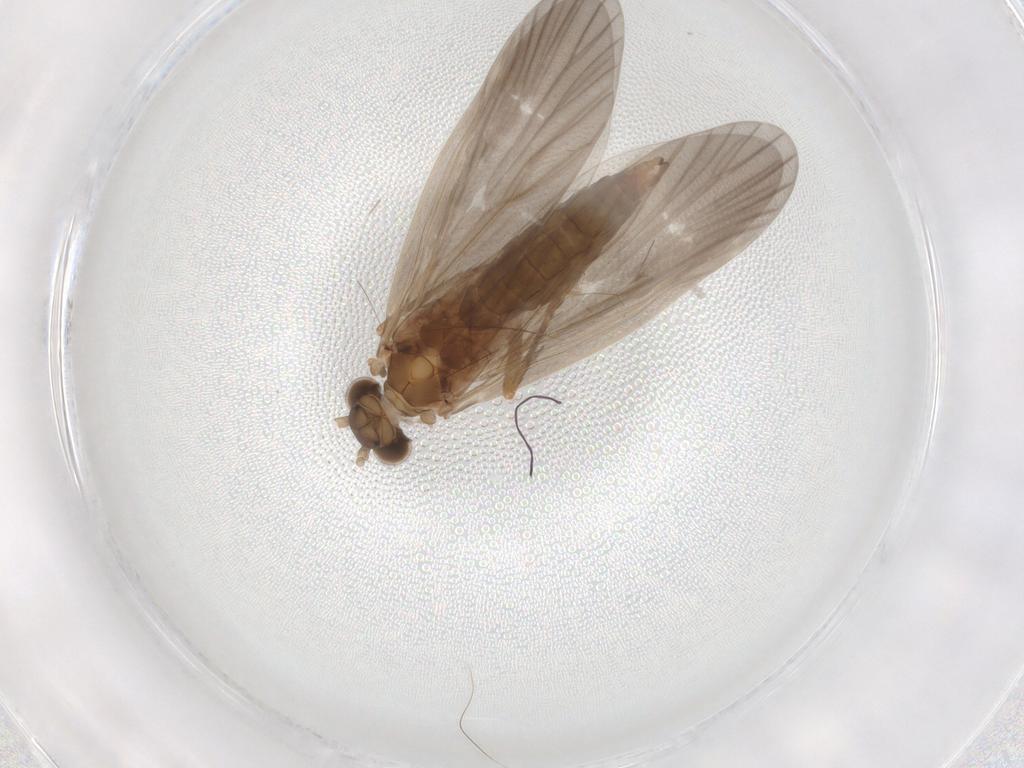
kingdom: Animalia
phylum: Arthropoda
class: Insecta
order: Trichoptera
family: Philopotamidae
